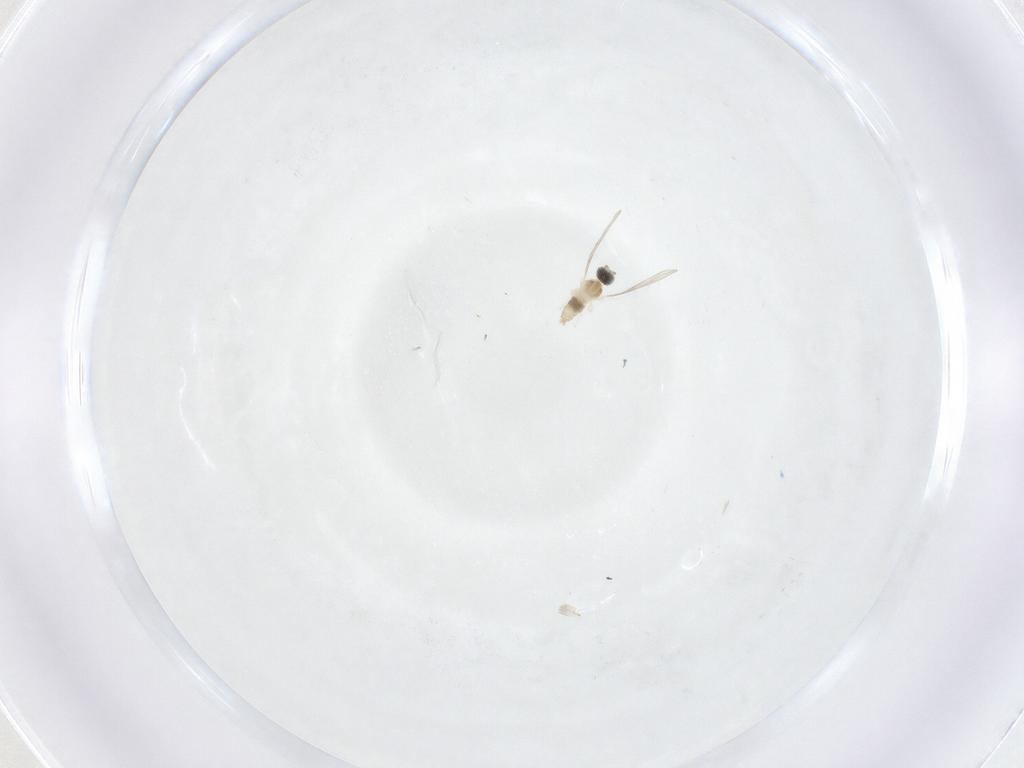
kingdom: Animalia
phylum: Arthropoda
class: Insecta
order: Diptera
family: Cecidomyiidae
